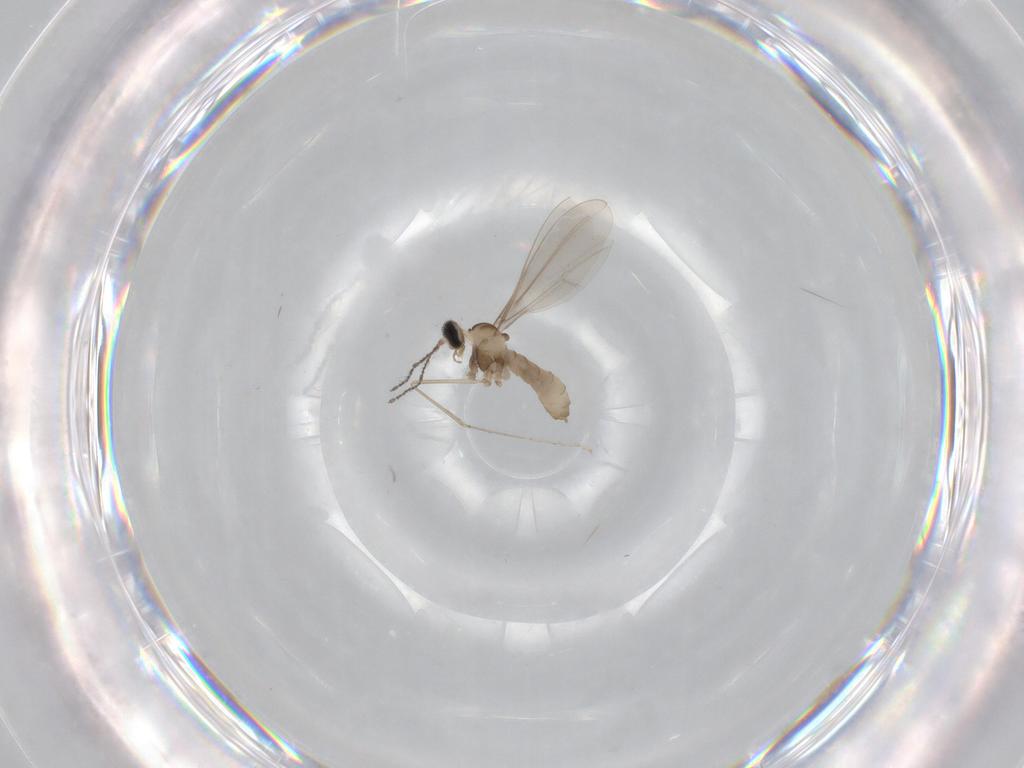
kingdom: Animalia
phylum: Arthropoda
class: Insecta
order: Diptera
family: Cecidomyiidae
